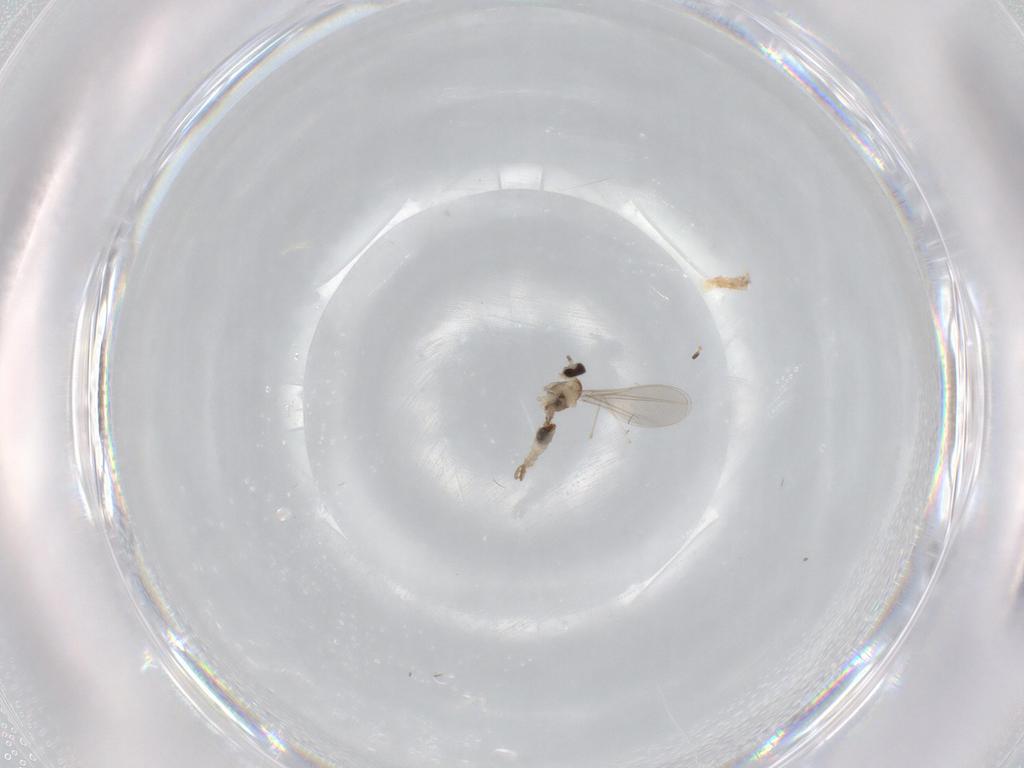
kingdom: Animalia
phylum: Arthropoda
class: Insecta
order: Diptera
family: Cecidomyiidae
